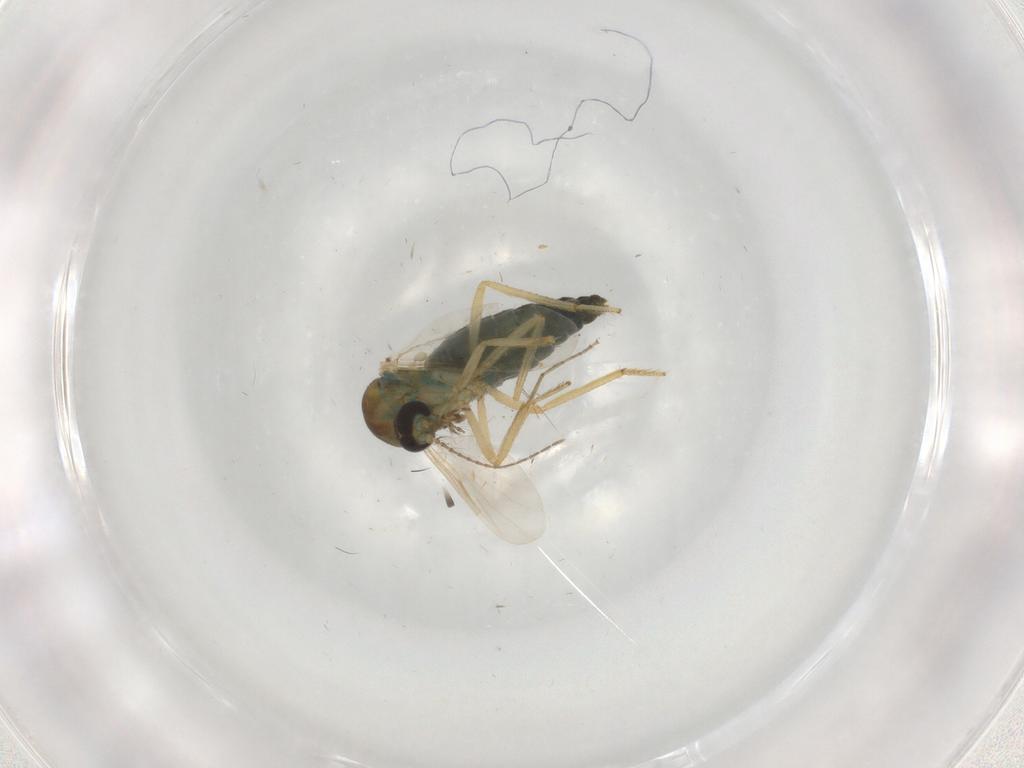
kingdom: Animalia
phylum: Arthropoda
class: Insecta
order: Diptera
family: Ceratopogonidae
